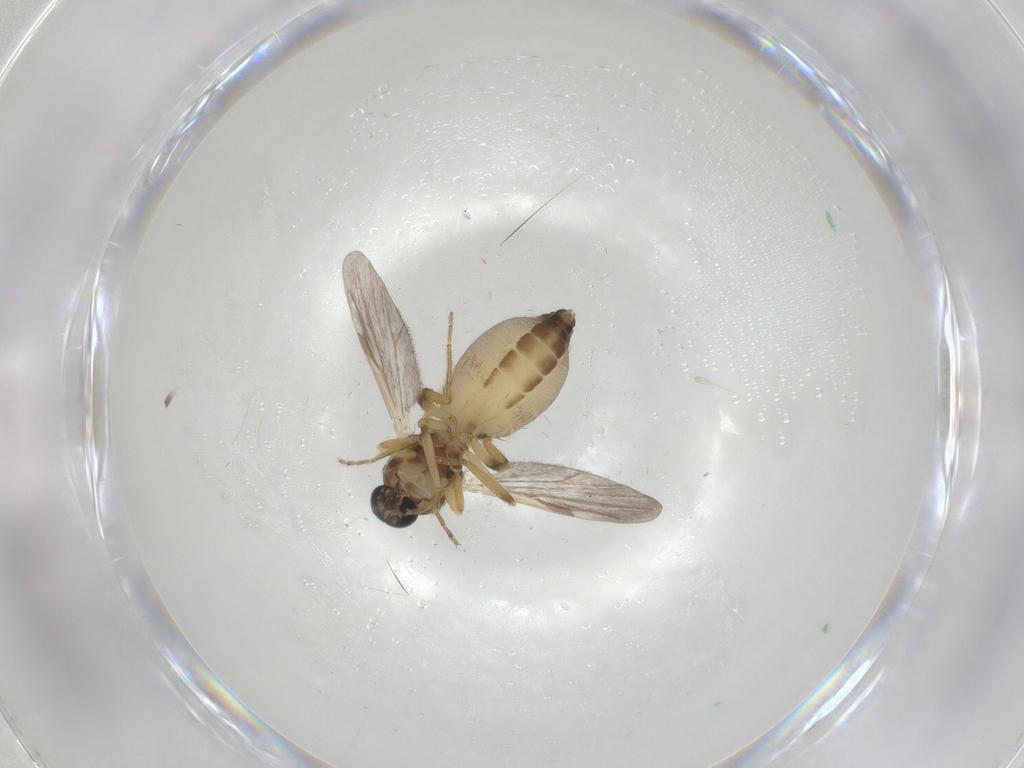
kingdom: Animalia
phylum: Arthropoda
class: Insecta
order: Diptera
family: Ceratopogonidae
